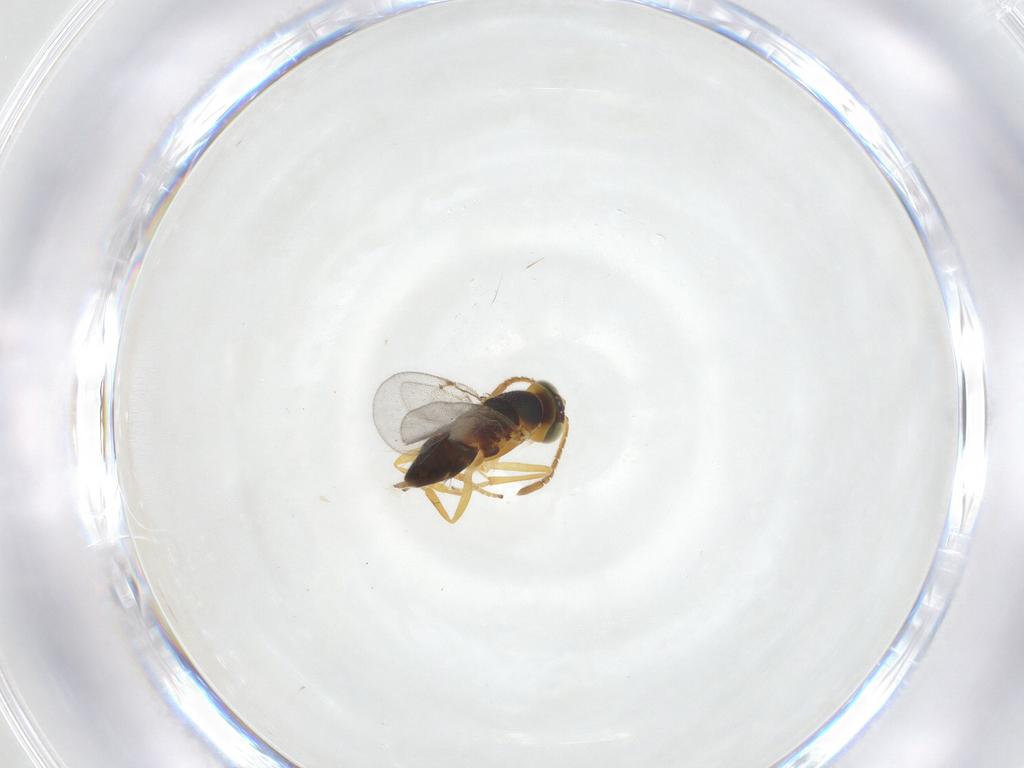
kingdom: Animalia
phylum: Arthropoda
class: Insecta
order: Hymenoptera
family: Encyrtidae
